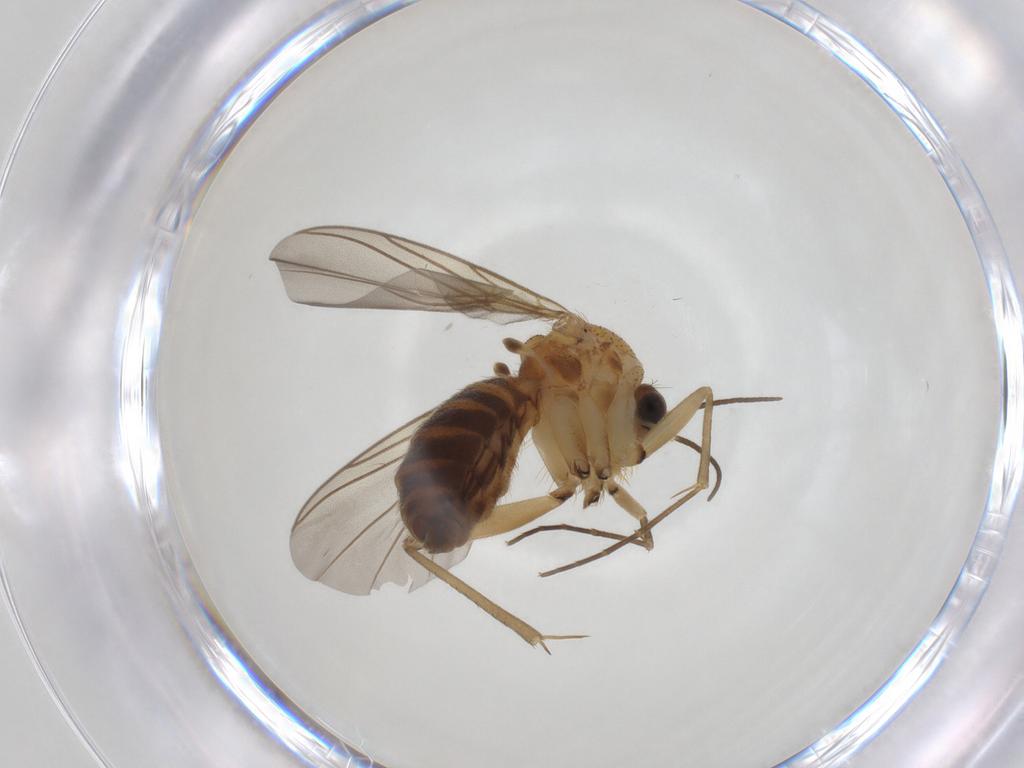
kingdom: Animalia
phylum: Arthropoda
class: Insecta
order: Diptera
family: Mycetophilidae
